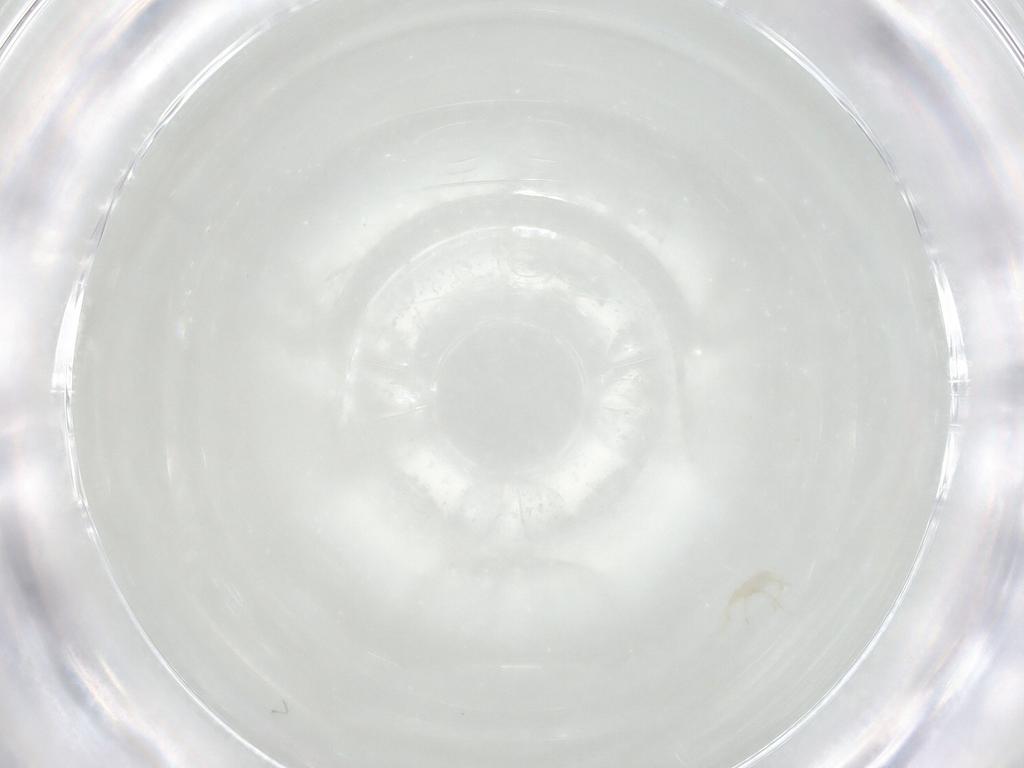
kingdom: Animalia
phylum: Arthropoda
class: Arachnida
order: Trombidiformes
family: Erythraeidae
